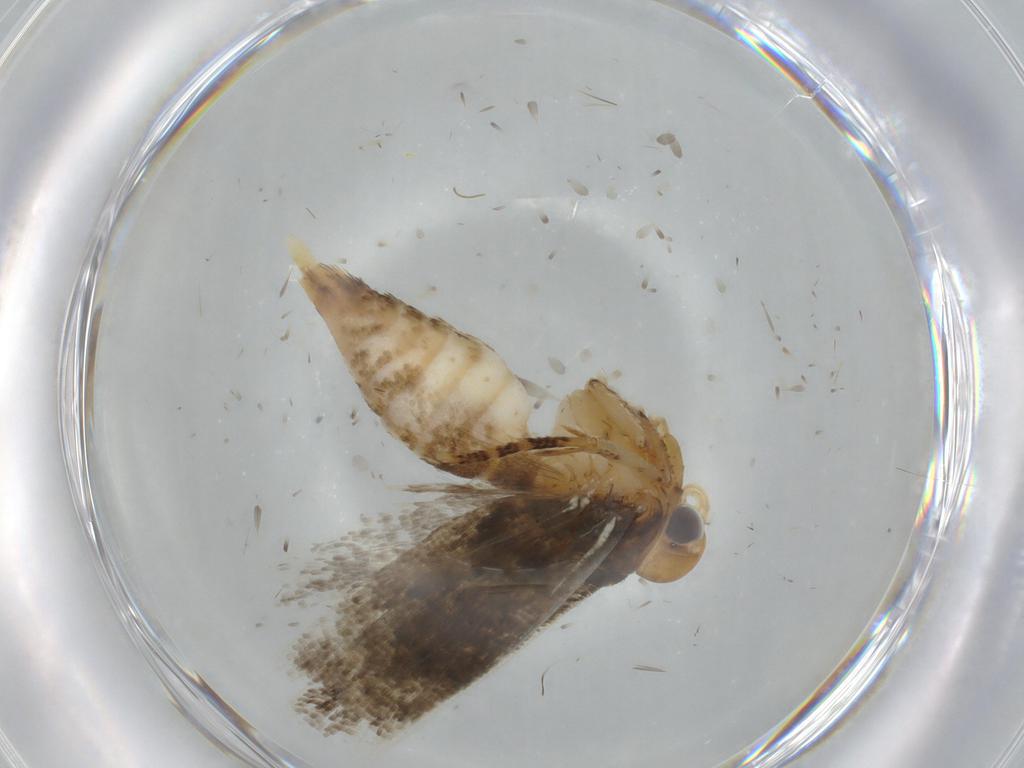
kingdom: Animalia
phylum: Arthropoda
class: Insecta
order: Lepidoptera
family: Gelechiidae
